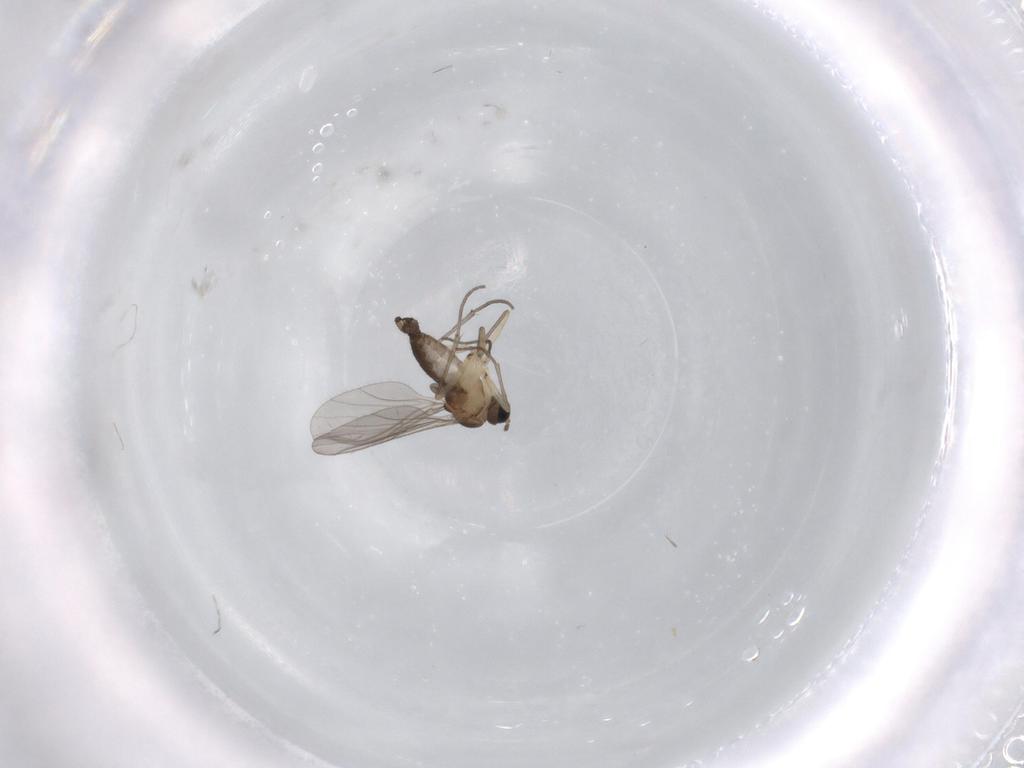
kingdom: Animalia
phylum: Arthropoda
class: Insecta
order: Diptera
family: Sciaridae
